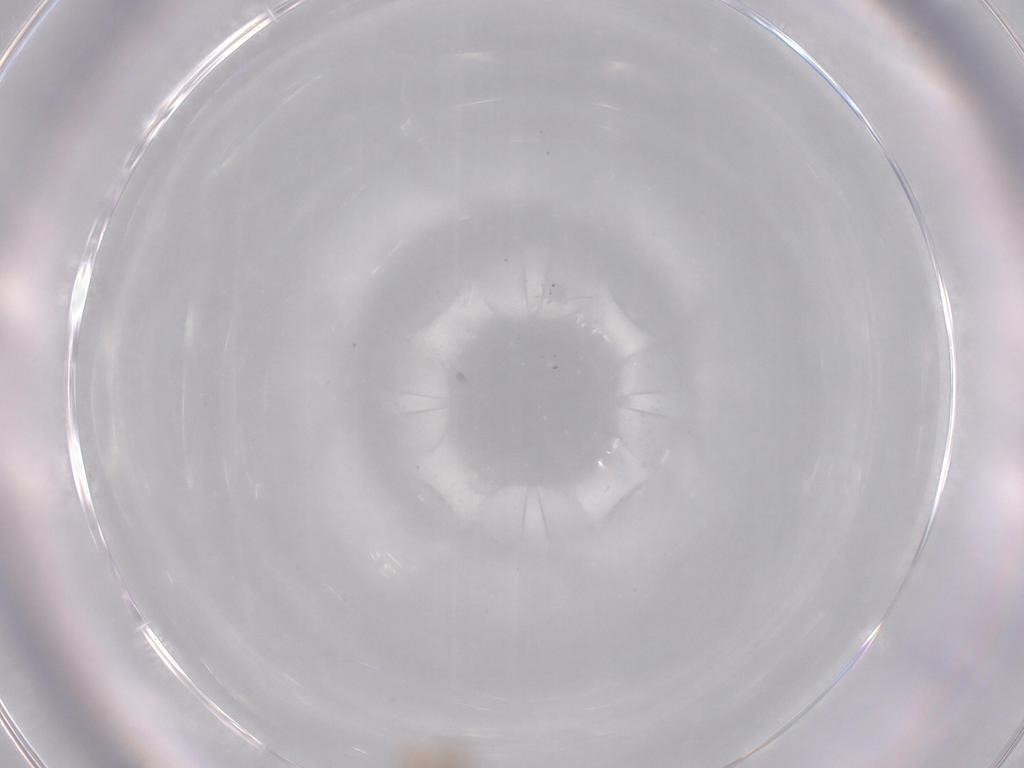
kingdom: Animalia
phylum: Arthropoda
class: Insecta
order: Hemiptera
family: Miridae
